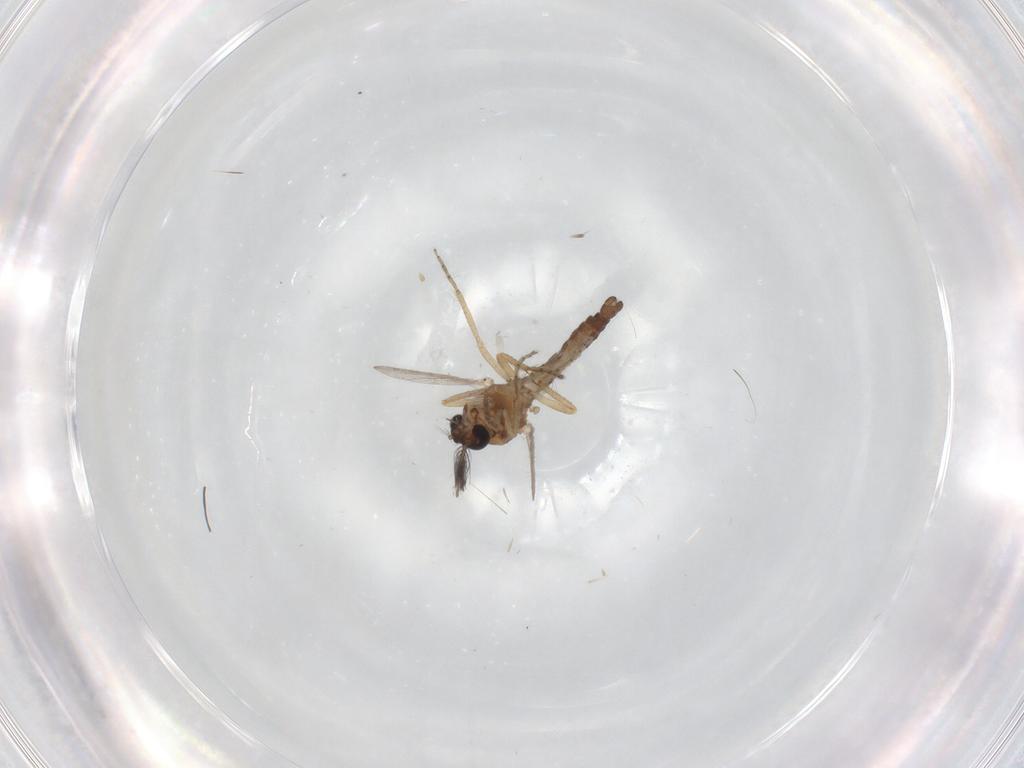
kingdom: Animalia
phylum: Arthropoda
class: Insecta
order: Diptera
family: Ceratopogonidae
